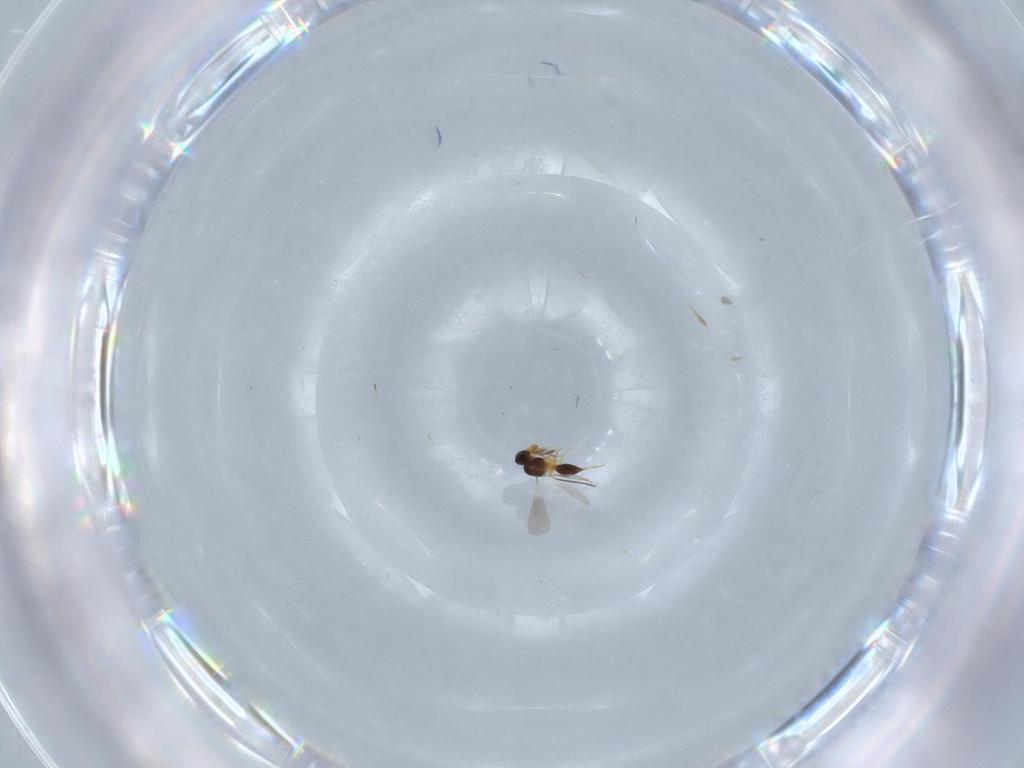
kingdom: Animalia
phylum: Arthropoda
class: Insecta
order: Hymenoptera
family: Platygastridae
